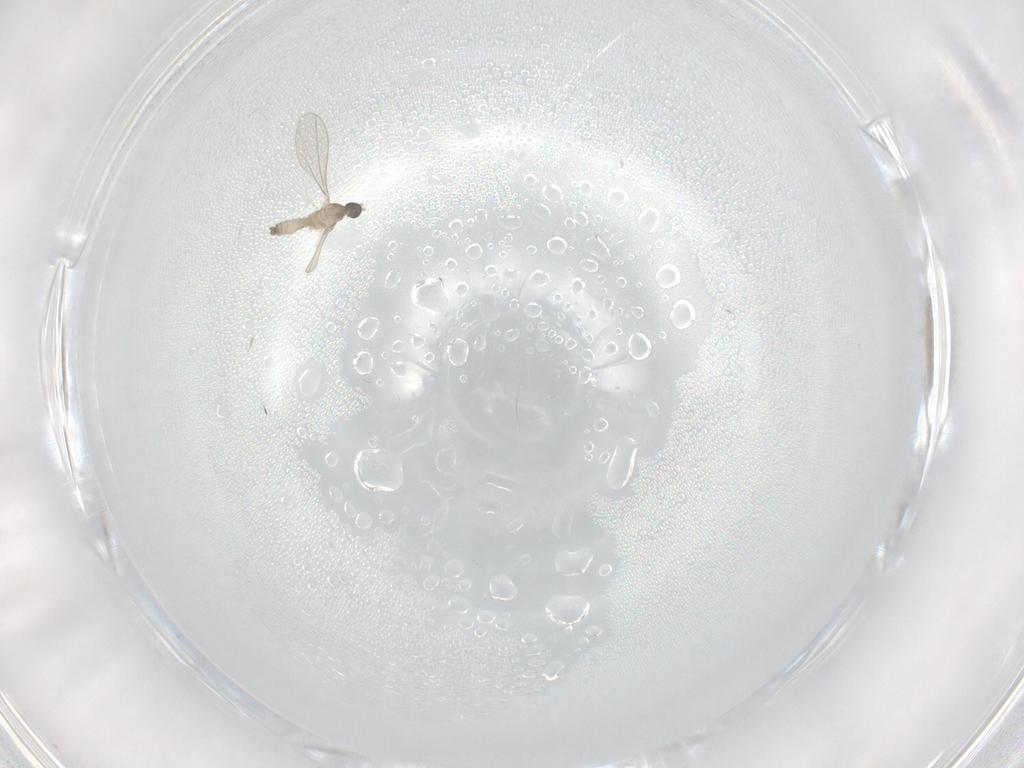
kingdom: Animalia
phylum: Arthropoda
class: Insecta
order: Diptera
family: Cecidomyiidae
